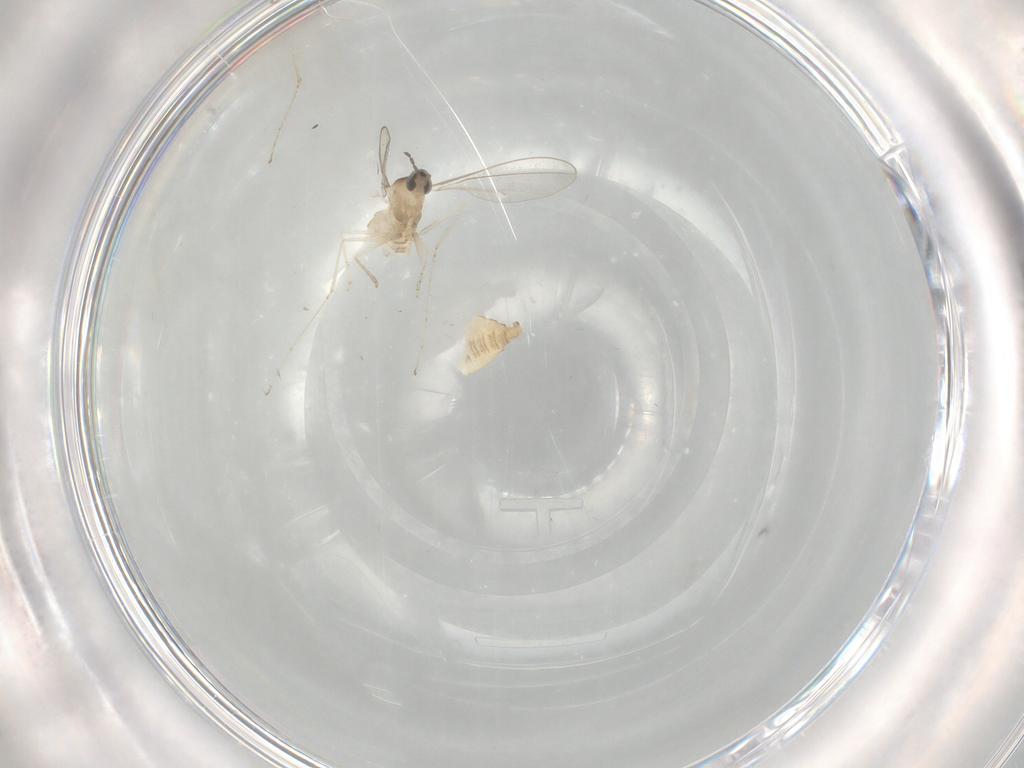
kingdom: Animalia
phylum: Arthropoda
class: Insecta
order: Diptera
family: Cecidomyiidae
